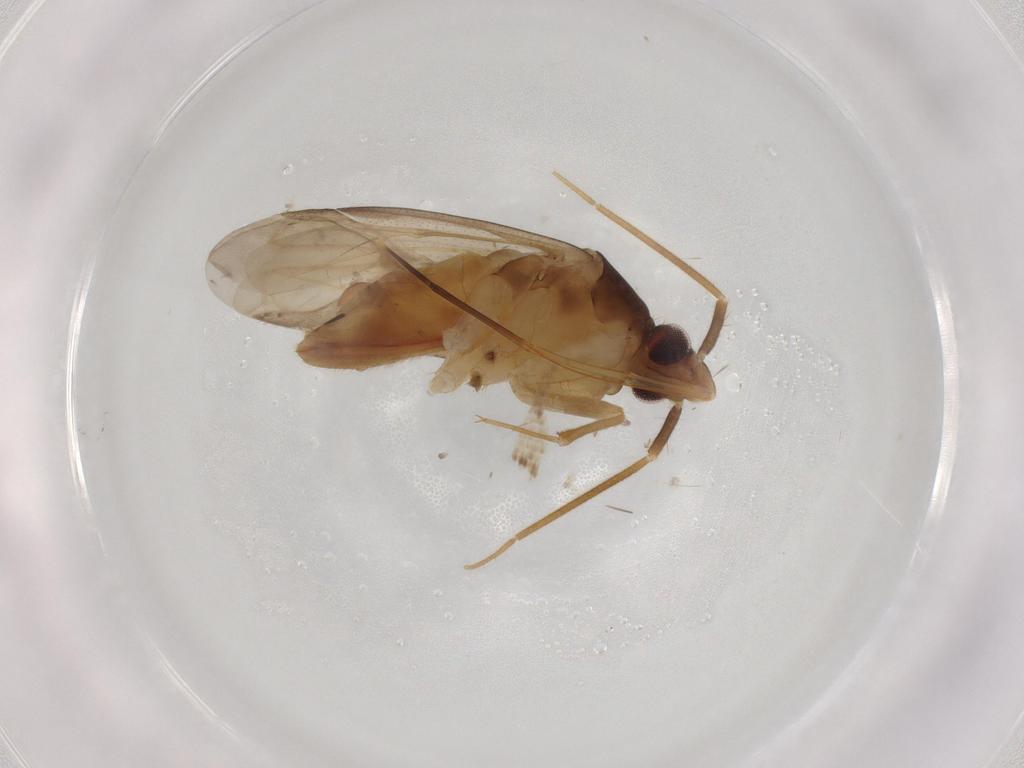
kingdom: Animalia
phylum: Arthropoda
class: Insecta
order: Hemiptera
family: Miridae
